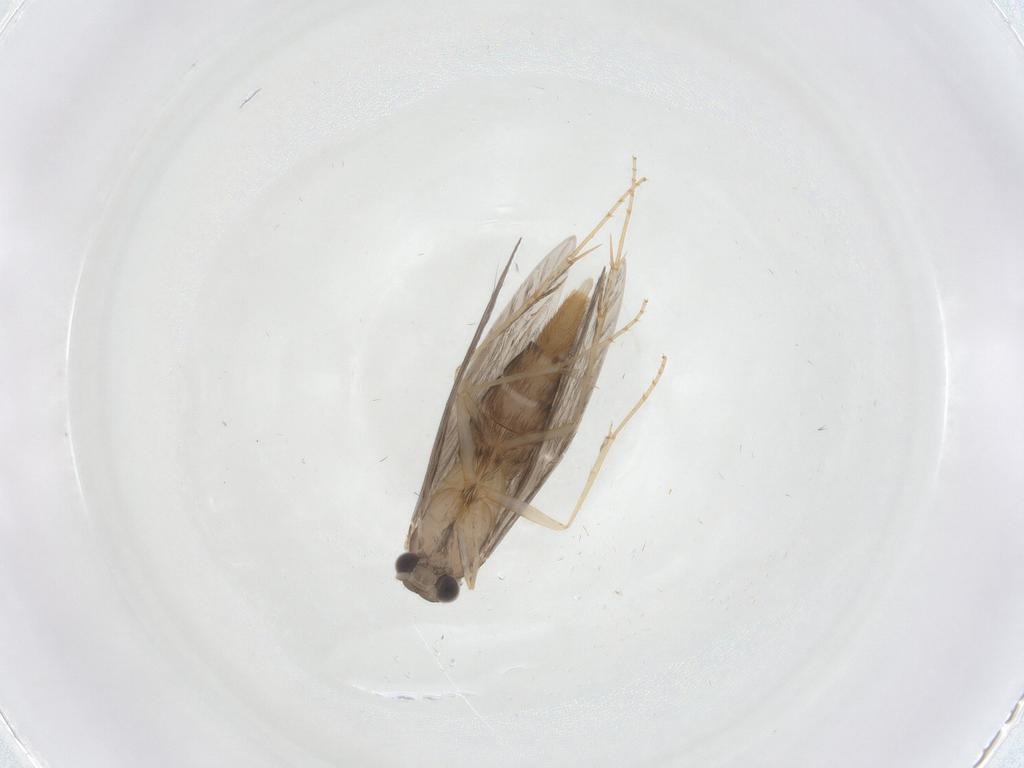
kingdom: Animalia
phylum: Arthropoda
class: Insecta
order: Trichoptera
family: Hydroptilidae
